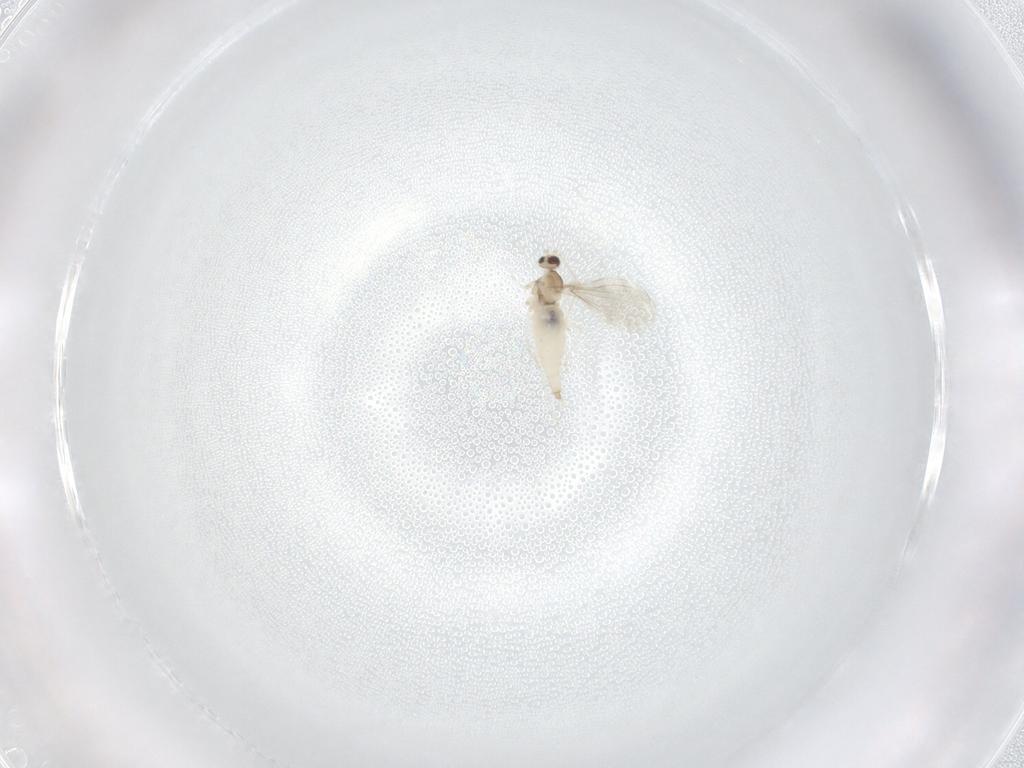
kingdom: Animalia
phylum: Arthropoda
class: Insecta
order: Diptera
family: Cecidomyiidae
